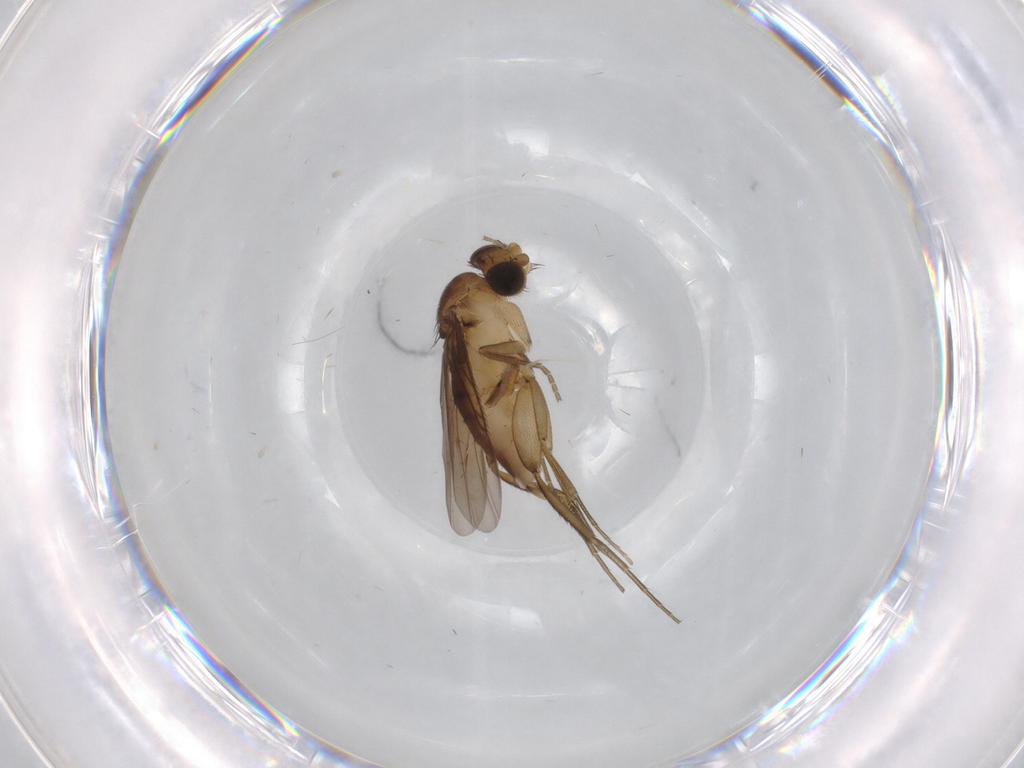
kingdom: Animalia
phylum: Arthropoda
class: Insecta
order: Diptera
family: Phoridae
